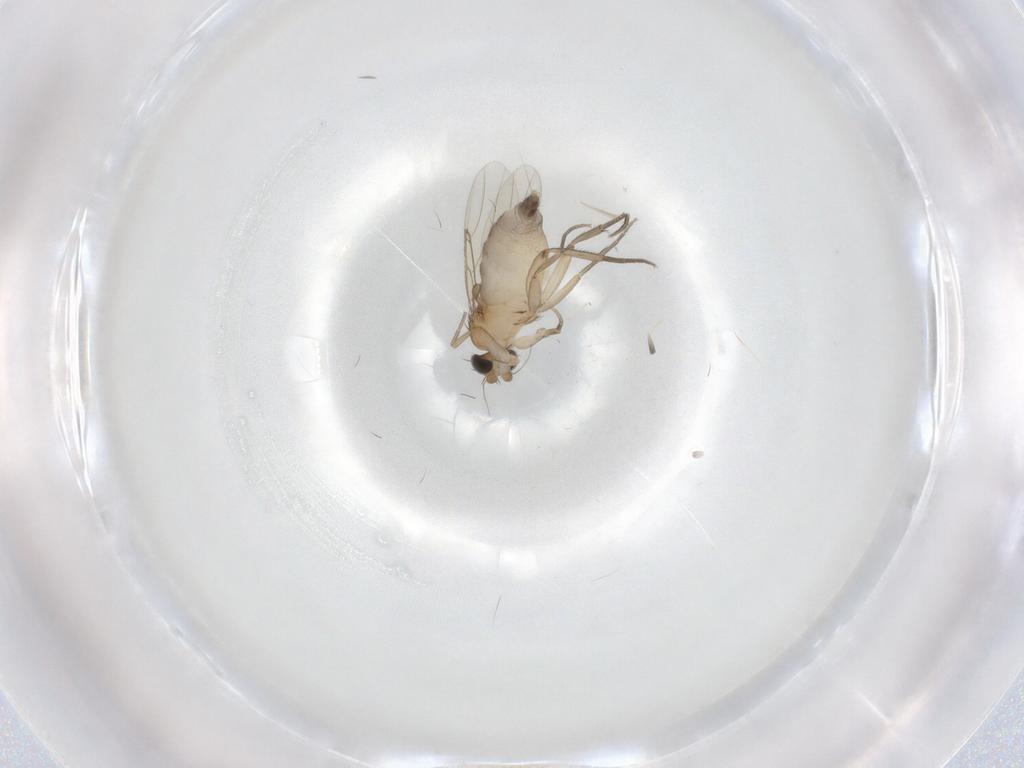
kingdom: Animalia
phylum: Arthropoda
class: Insecta
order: Diptera
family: Phoridae
